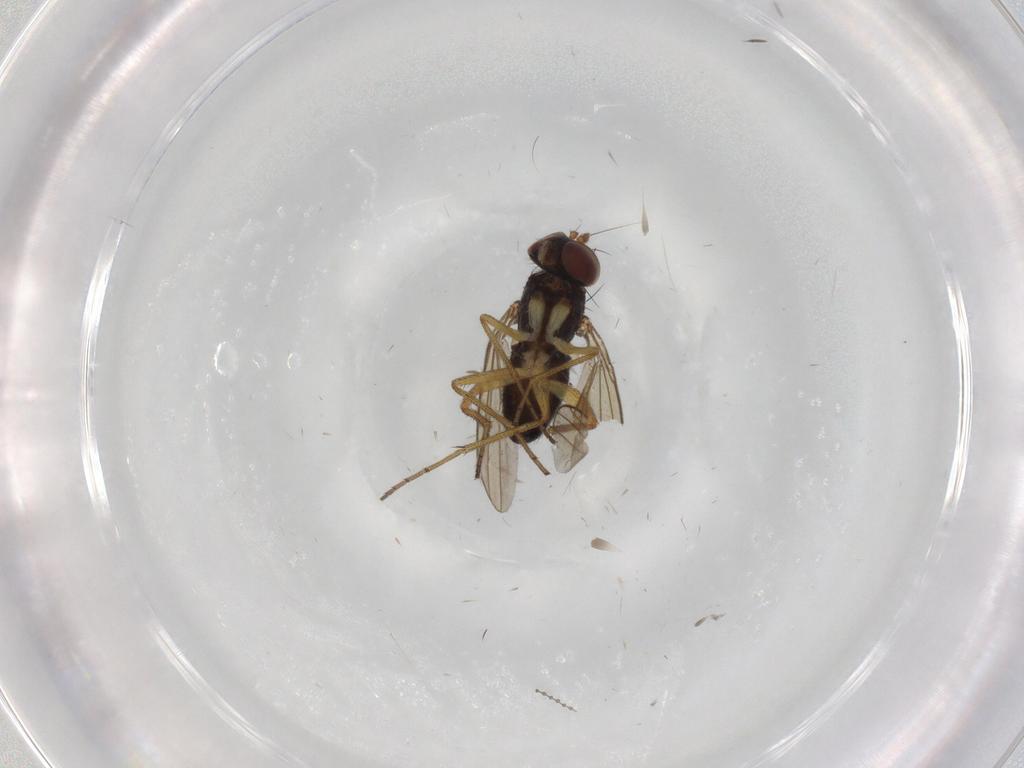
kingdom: Animalia
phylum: Arthropoda
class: Insecta
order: Diptera
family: Dolichopodidae
